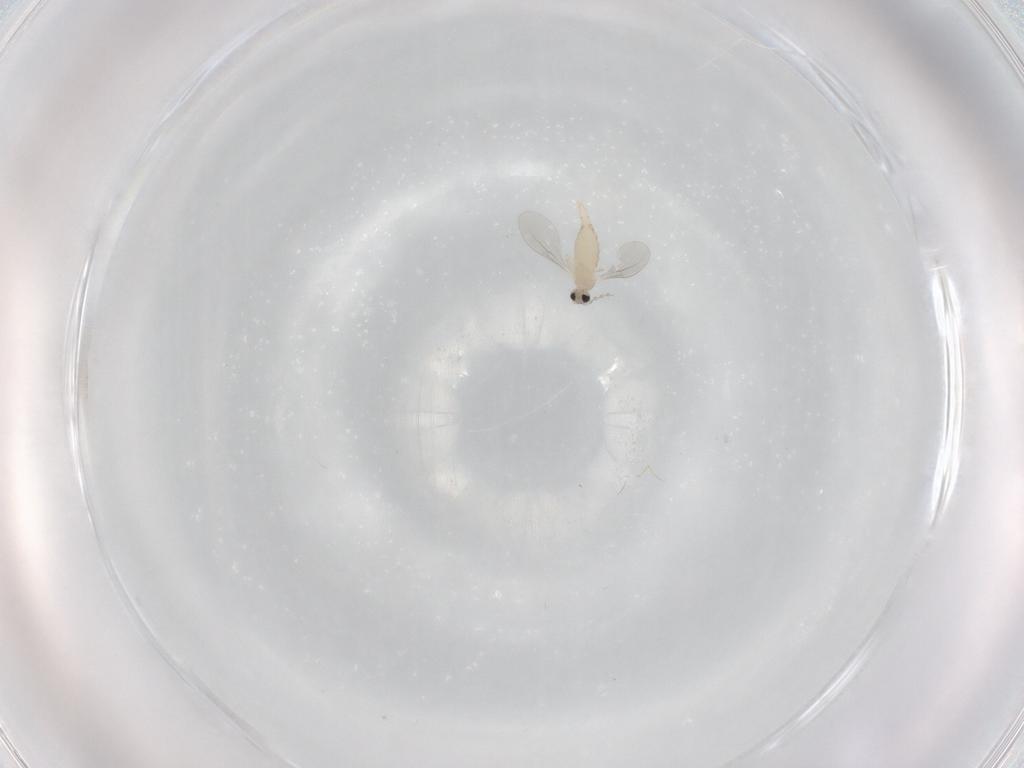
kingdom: Animalia
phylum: Arthropoda
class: Insecta
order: Diptera
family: Cecidomyiidae
